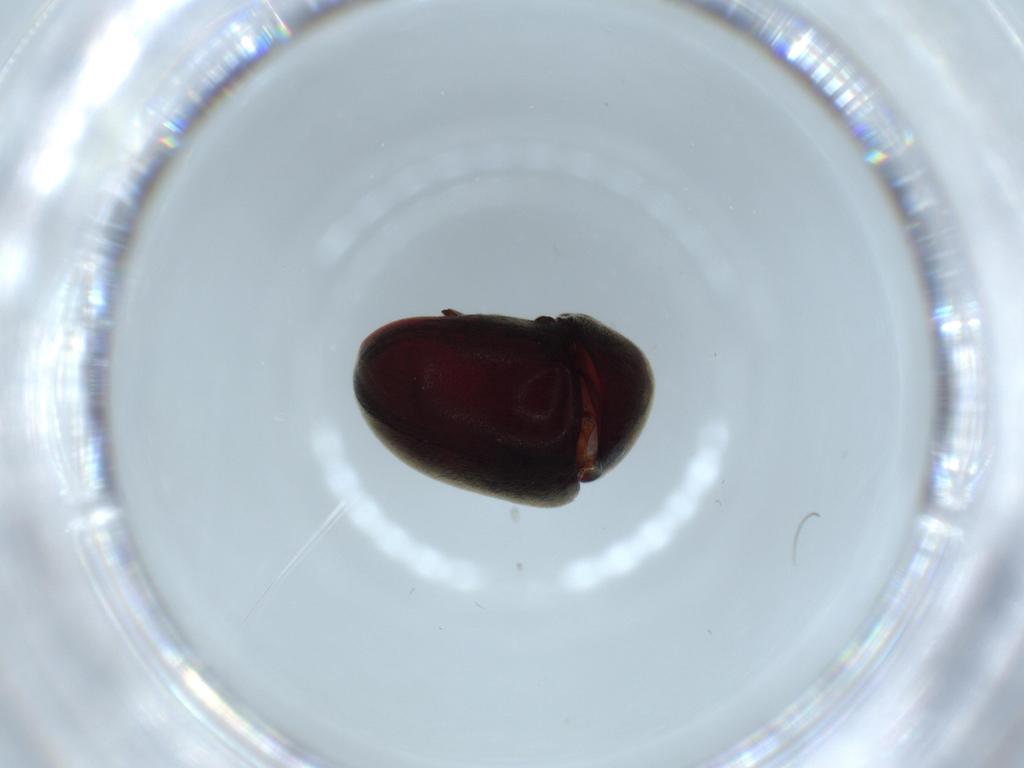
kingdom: Animalia
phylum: Arthropoda
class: Insecta
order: Coleoptera
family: Ptinidae
